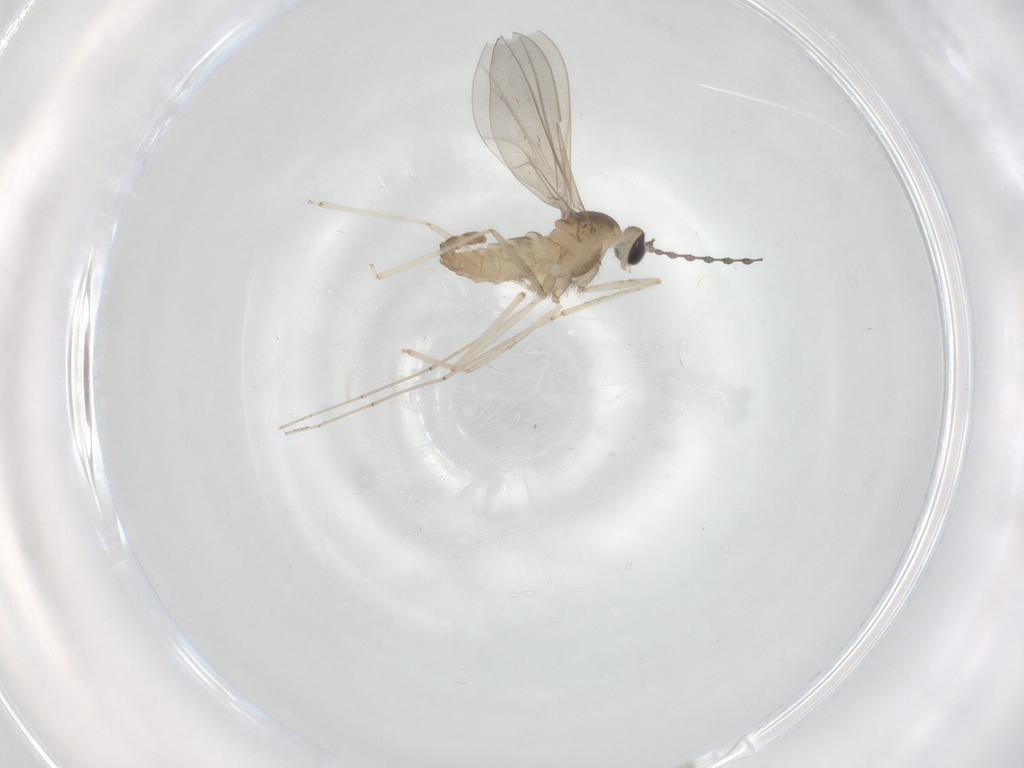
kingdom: Animalia
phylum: Arthropoda
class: Insecta
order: Diptera
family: Cecidomyiidae
